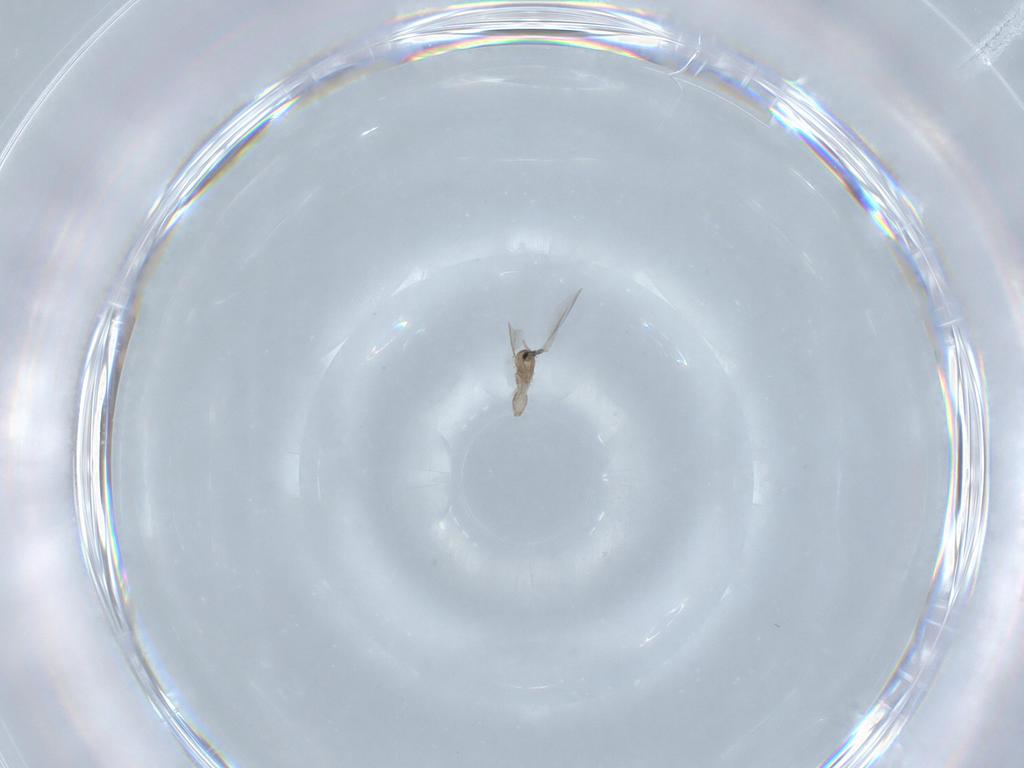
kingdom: Animalia
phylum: Arthropoda
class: Insecta
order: Diptera
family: Cecidomyiidae
